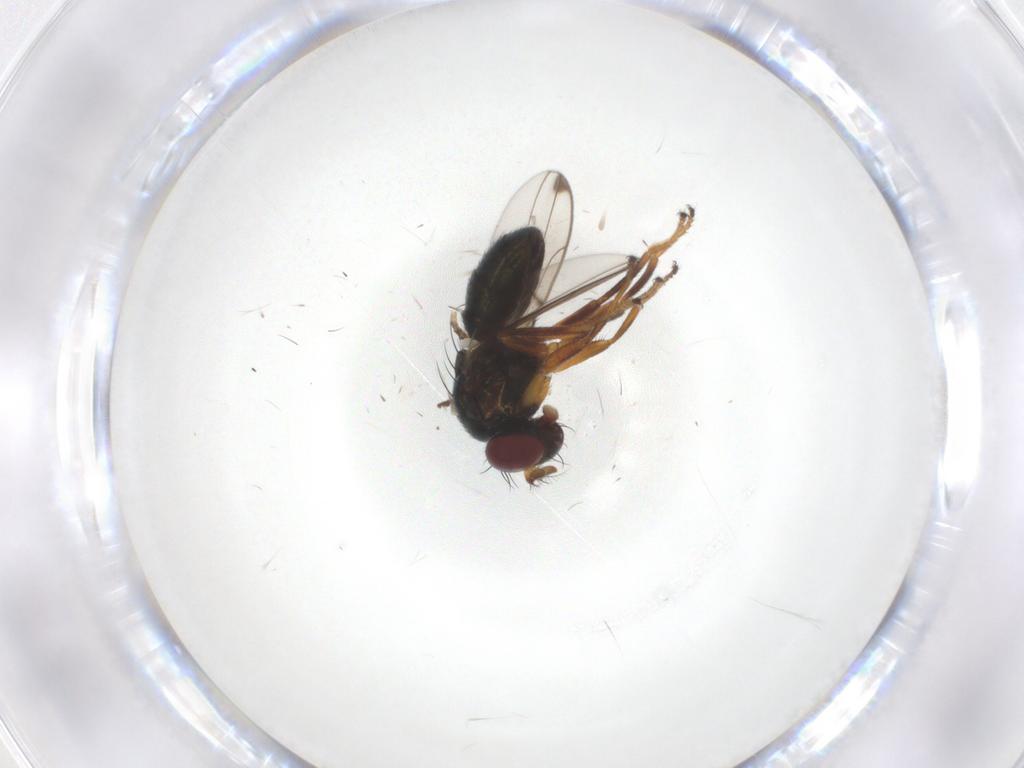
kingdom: Animalia
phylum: Arthropoda
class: Insecta
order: Diptera
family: Ephydridae
